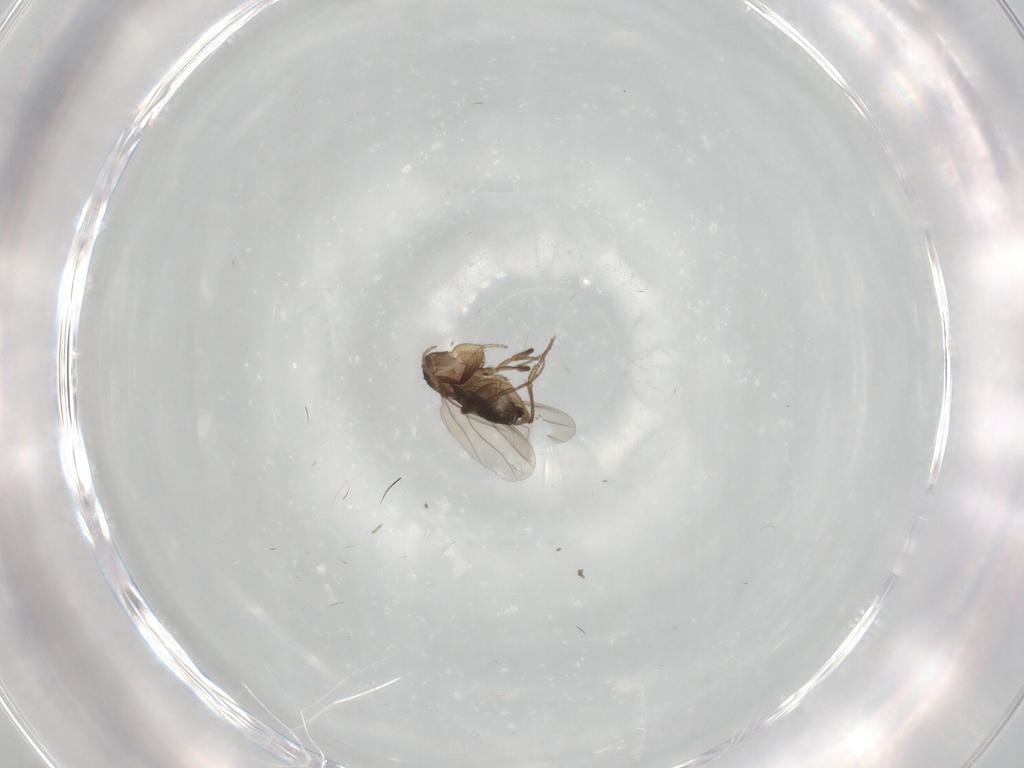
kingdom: Animalia
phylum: Arthropoda
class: Insecta
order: Diptera
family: Phoridae
